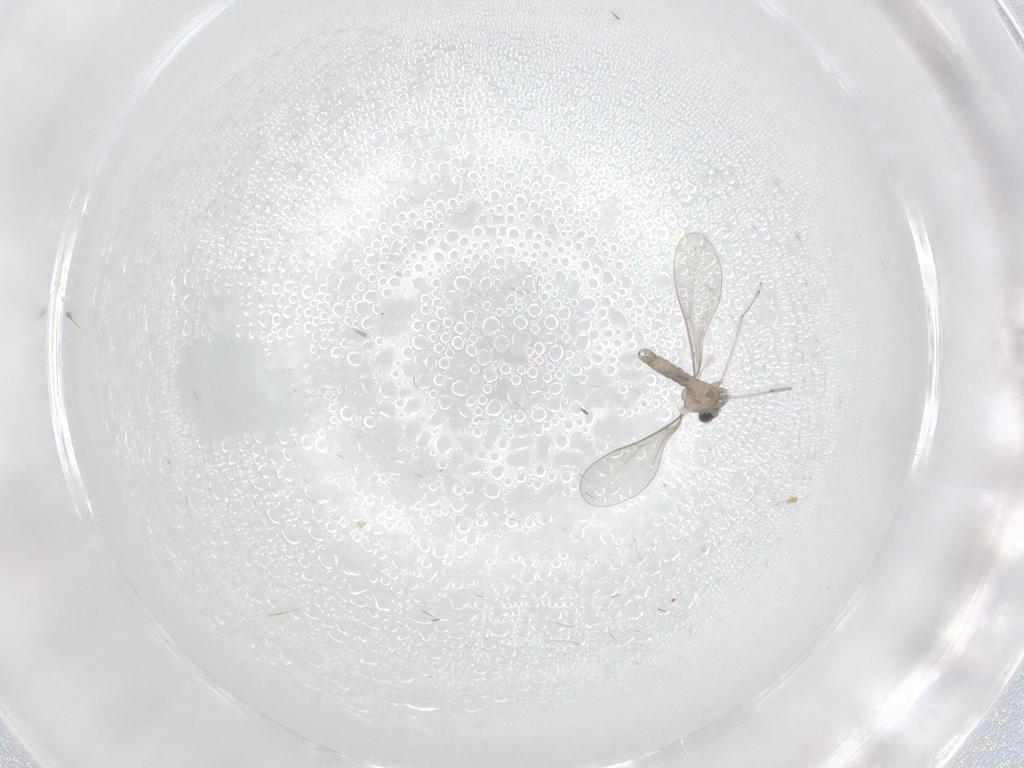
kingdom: Animalia
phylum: Arthropoda
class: Insecta
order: Diptera
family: Psychodidae
